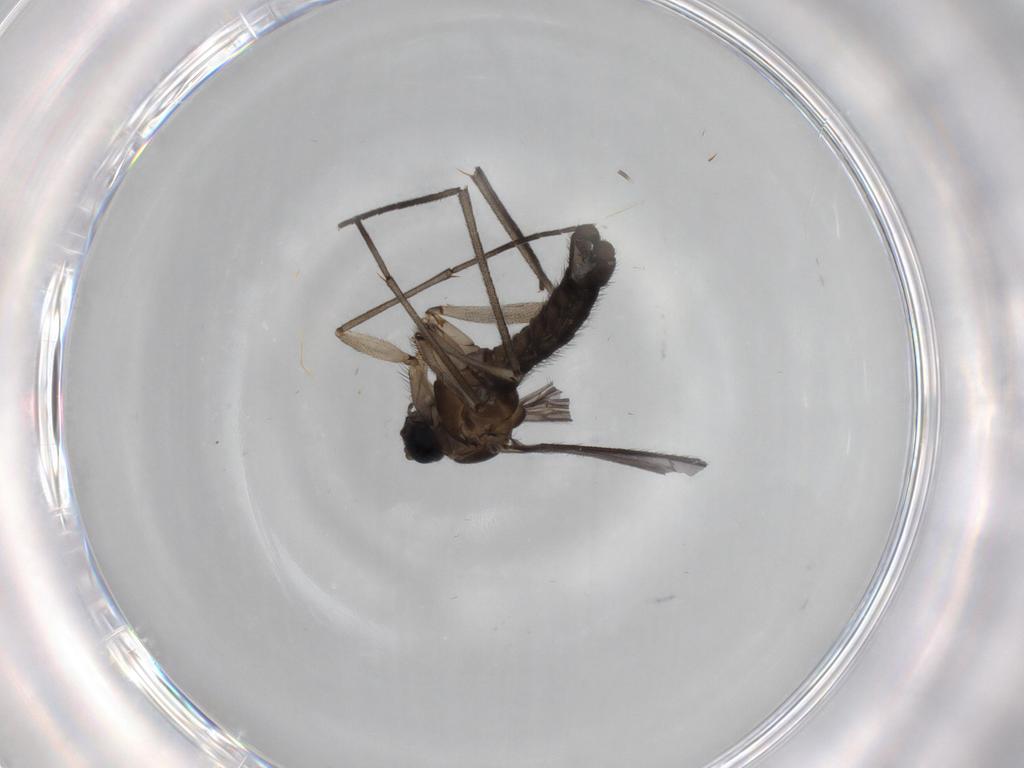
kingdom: Animalia
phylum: Arthropoda
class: Insecta
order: Diptera
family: Sciaridae
